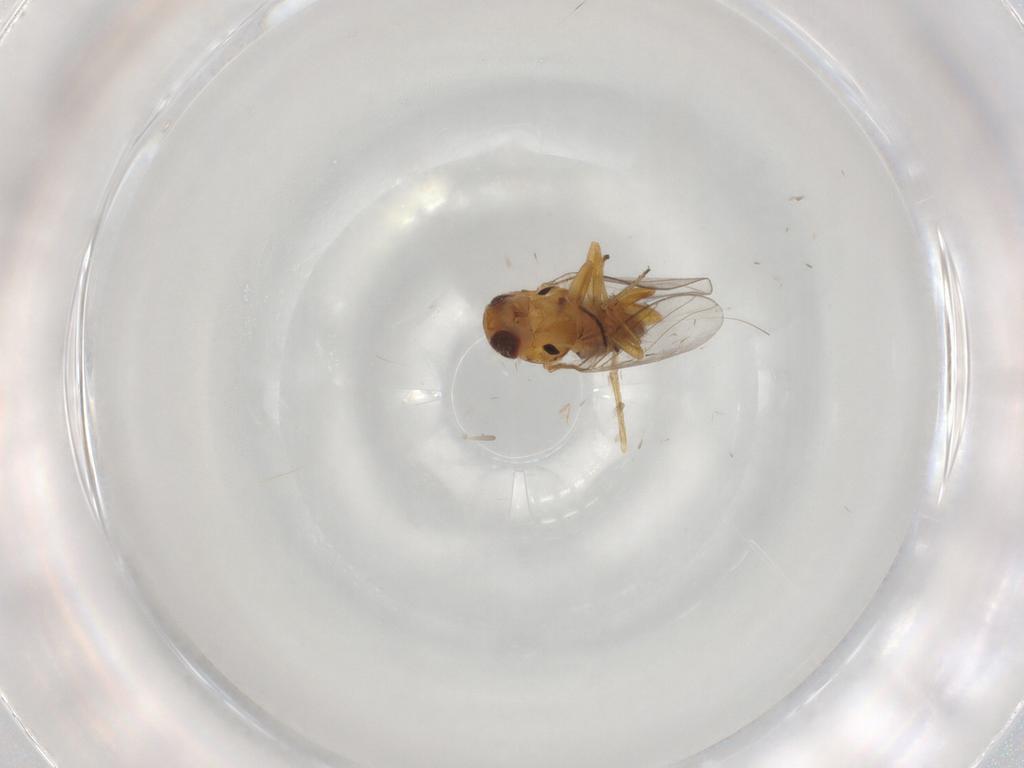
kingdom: Animalia
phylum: Arthropoda
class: Insecta
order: Diptera
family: Chloropidae
